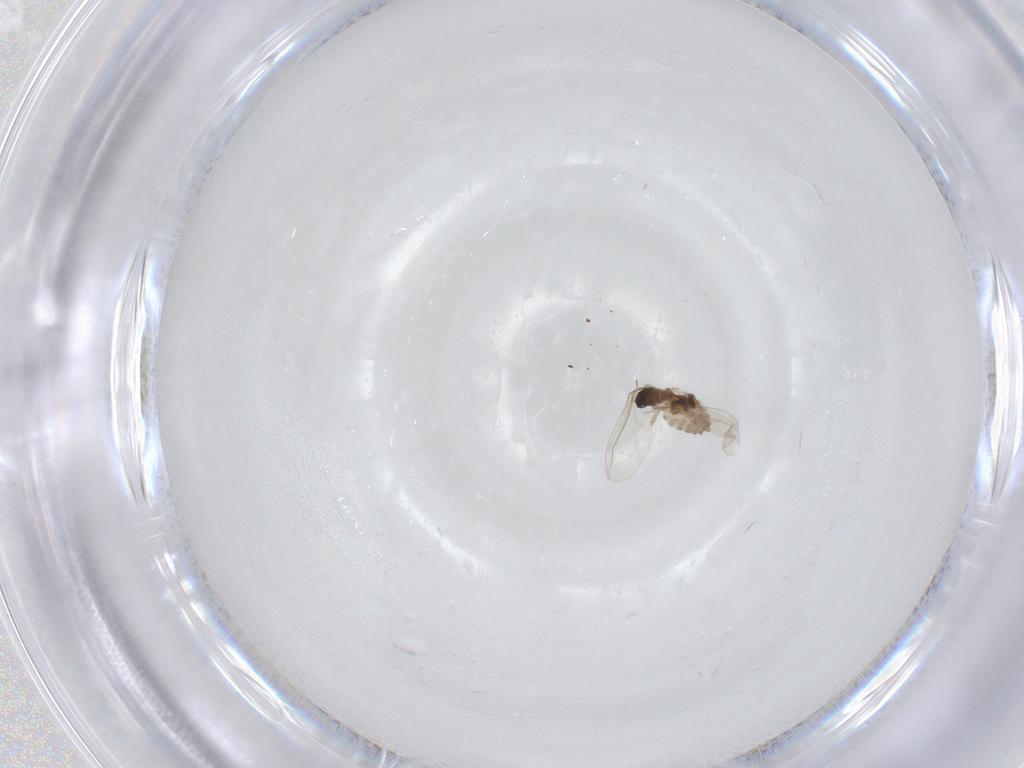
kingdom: Animalia
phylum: Arthropoda
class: Insecta
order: Diptera
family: Cecidomyiidae
